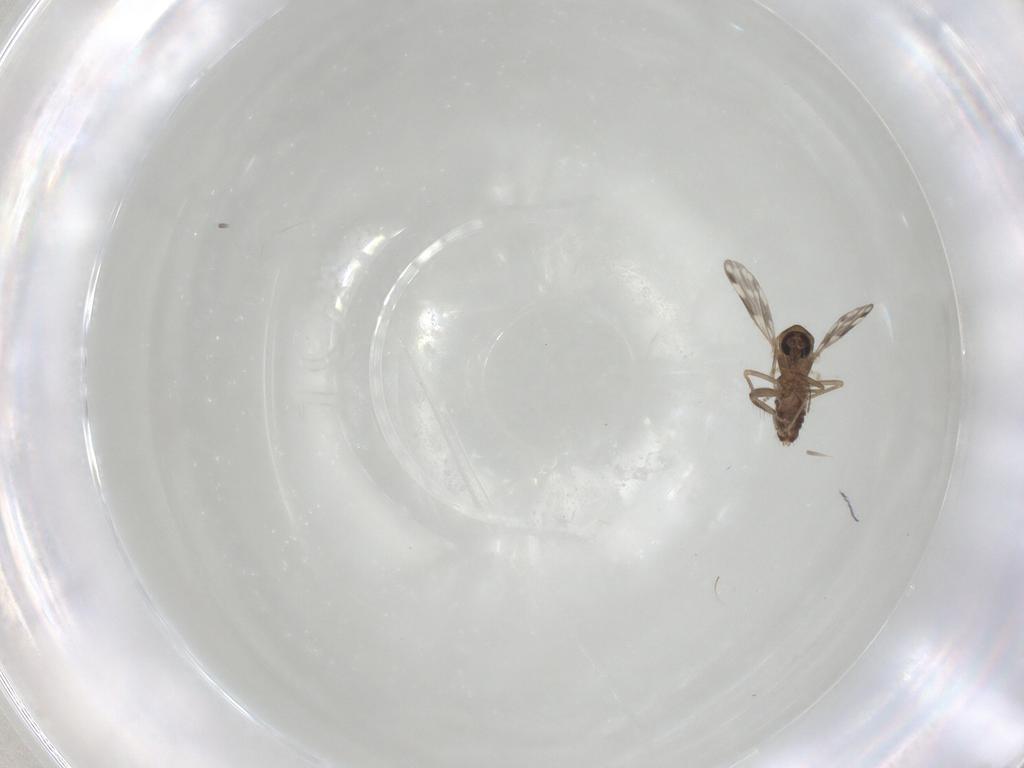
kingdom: Animalia
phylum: Arthropoda
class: Insecta
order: Diptera
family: Ceratopogonidae
